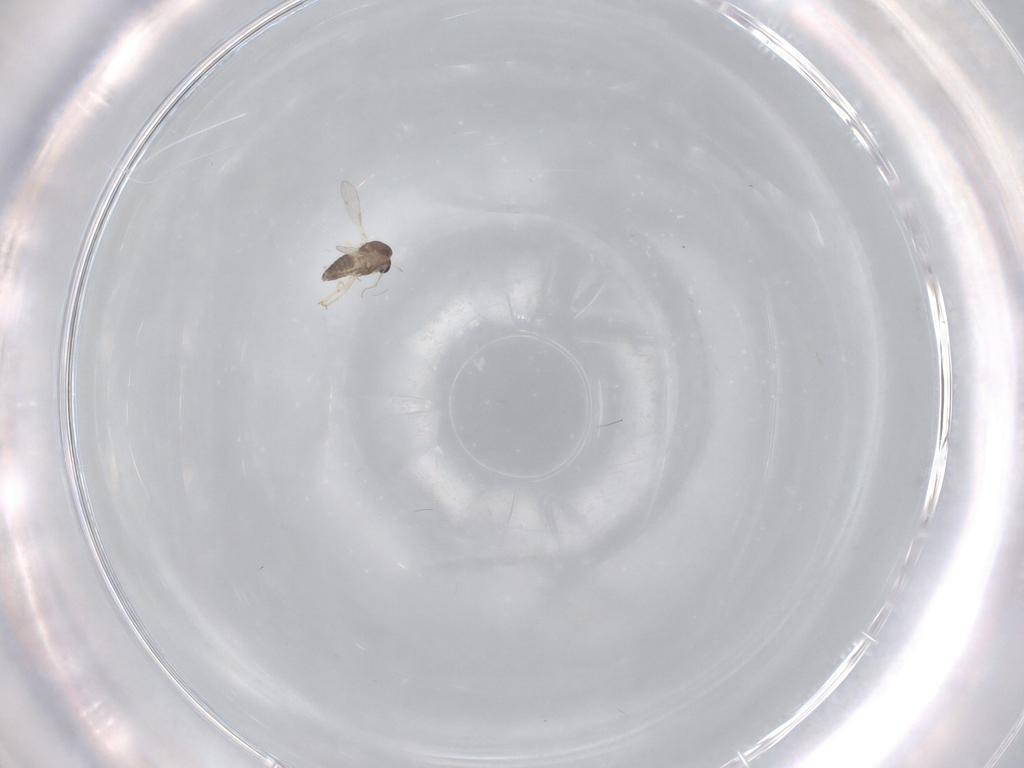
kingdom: Animalia
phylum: Arthropoda
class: Insecta
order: Diptera
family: Chironomidae
